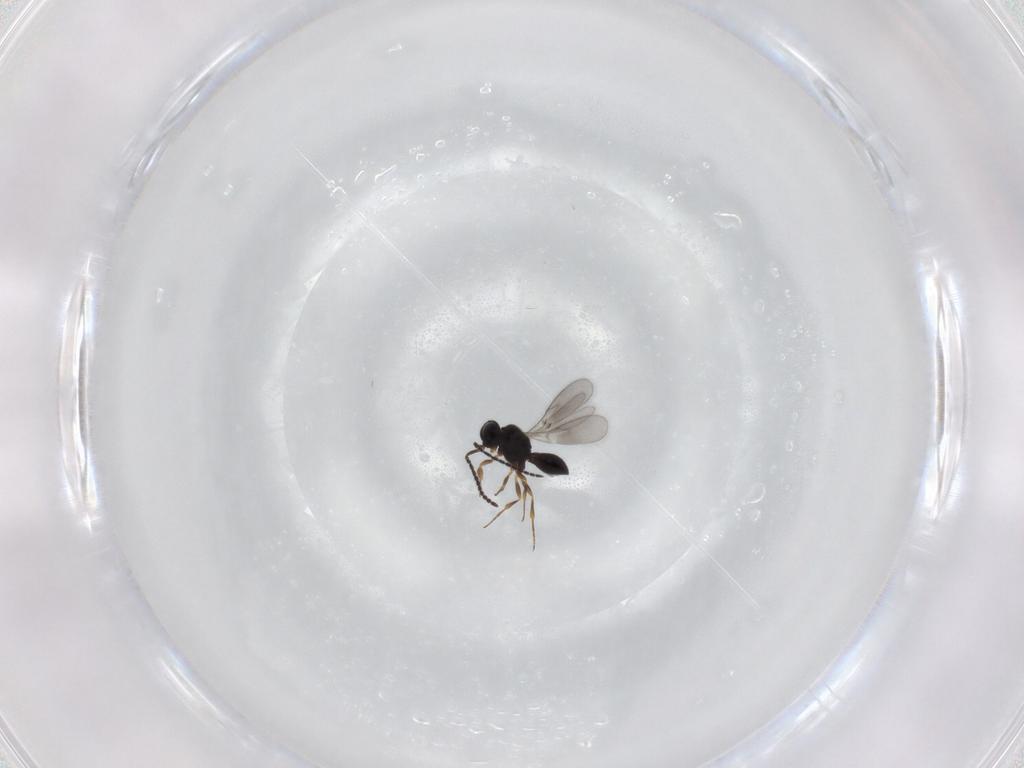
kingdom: Animalia
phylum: Arthropoda
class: Insecta
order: Hymenoptera
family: Scelionidae
